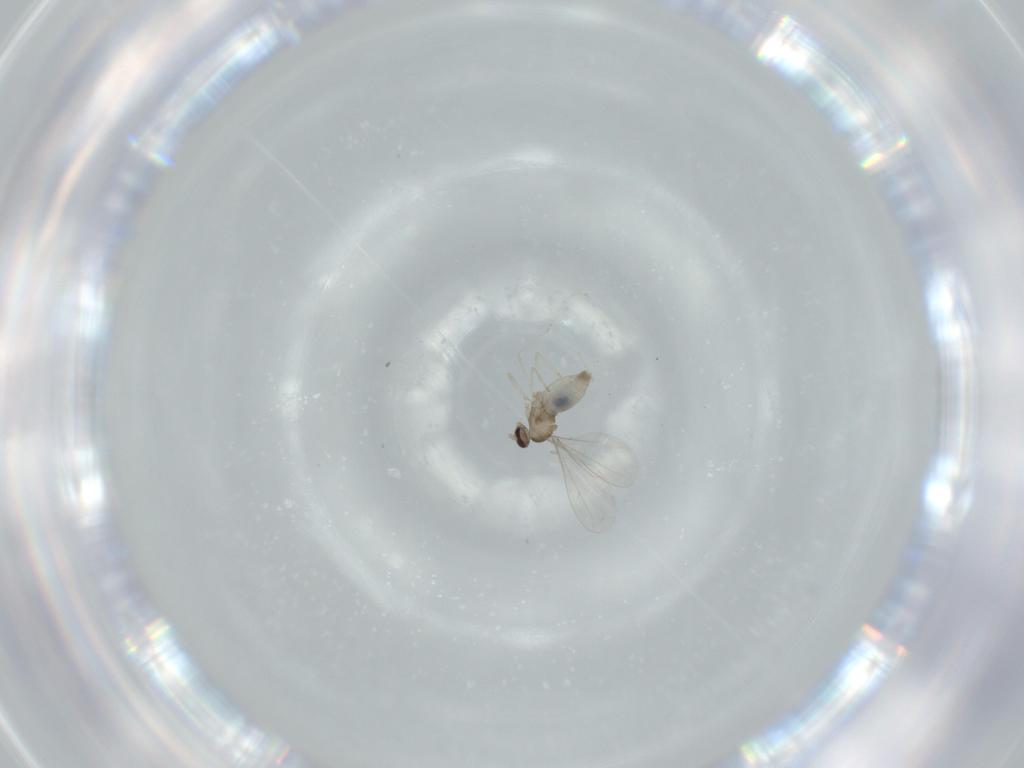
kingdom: Animalia
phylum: Arthropoda
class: Insecta
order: Diptera
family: Cecidomyiidae
